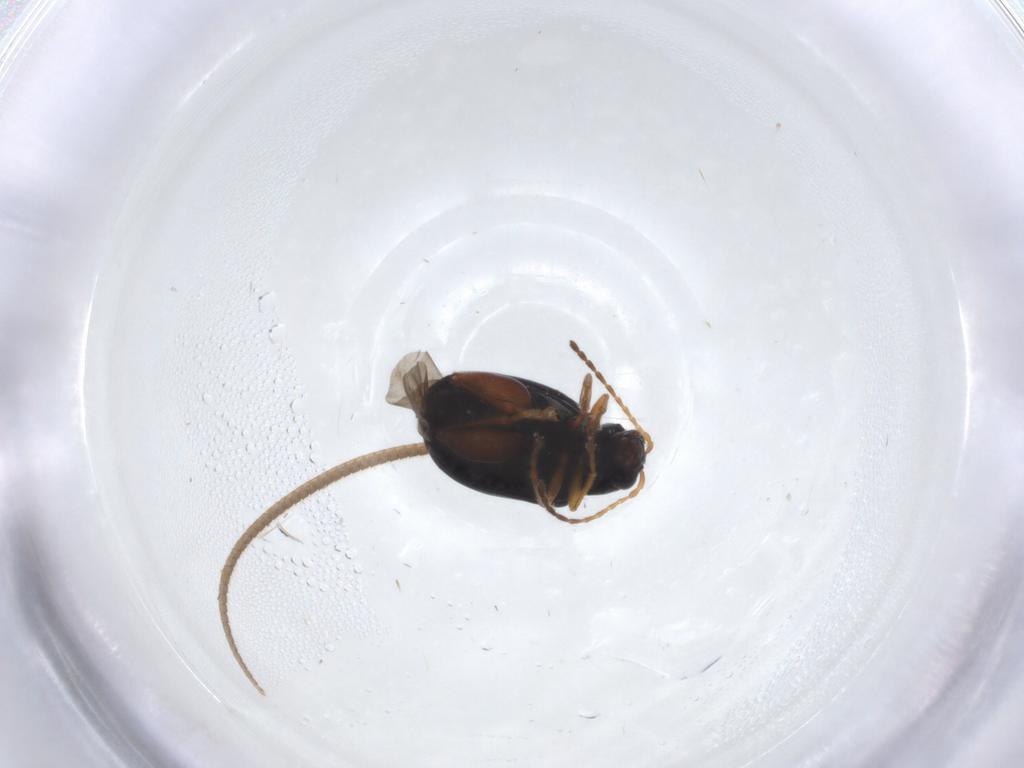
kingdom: Animalia
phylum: Arthropoda
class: Insecta
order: Coleoptera
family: Chrysomelidae
